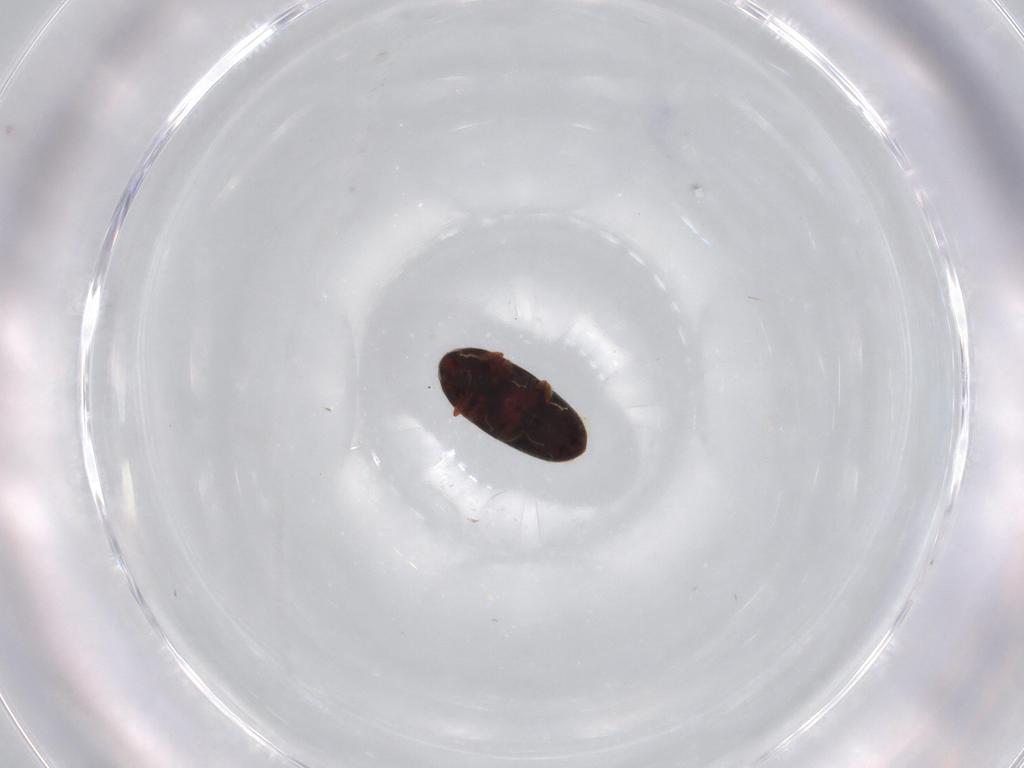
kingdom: Animalia
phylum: Arthropoda
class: Insecta
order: Coleoptera
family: Throscidae
